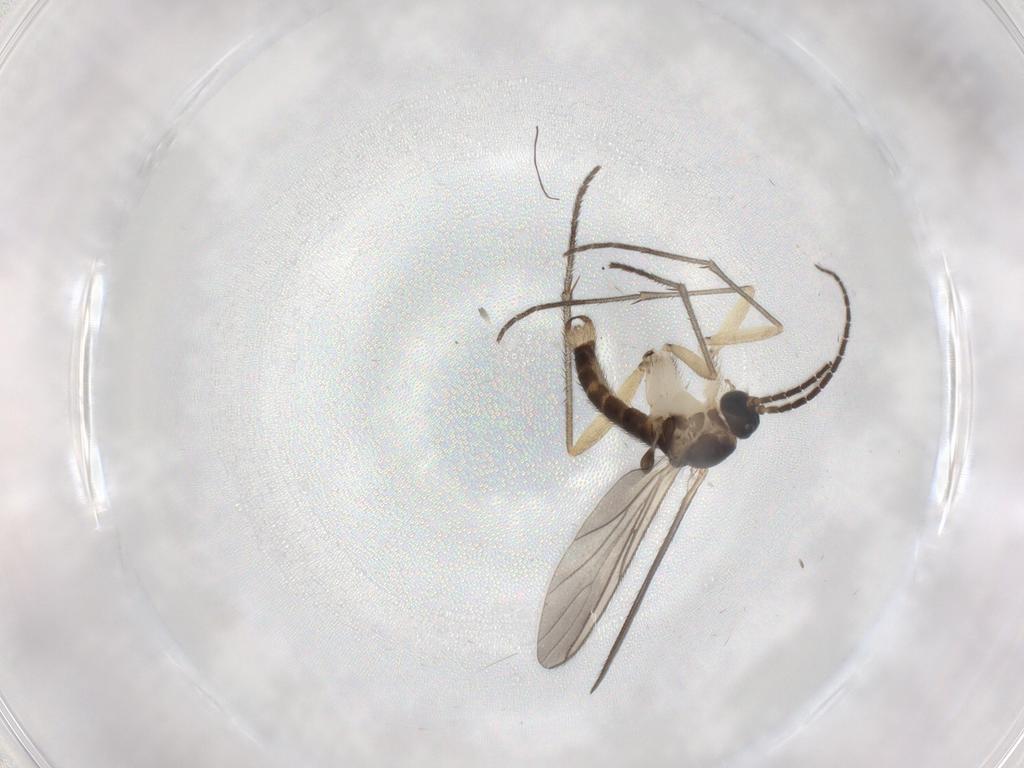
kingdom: Animalia
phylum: Arthropoda
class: Insecta
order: Diptera
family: Sciaridae
